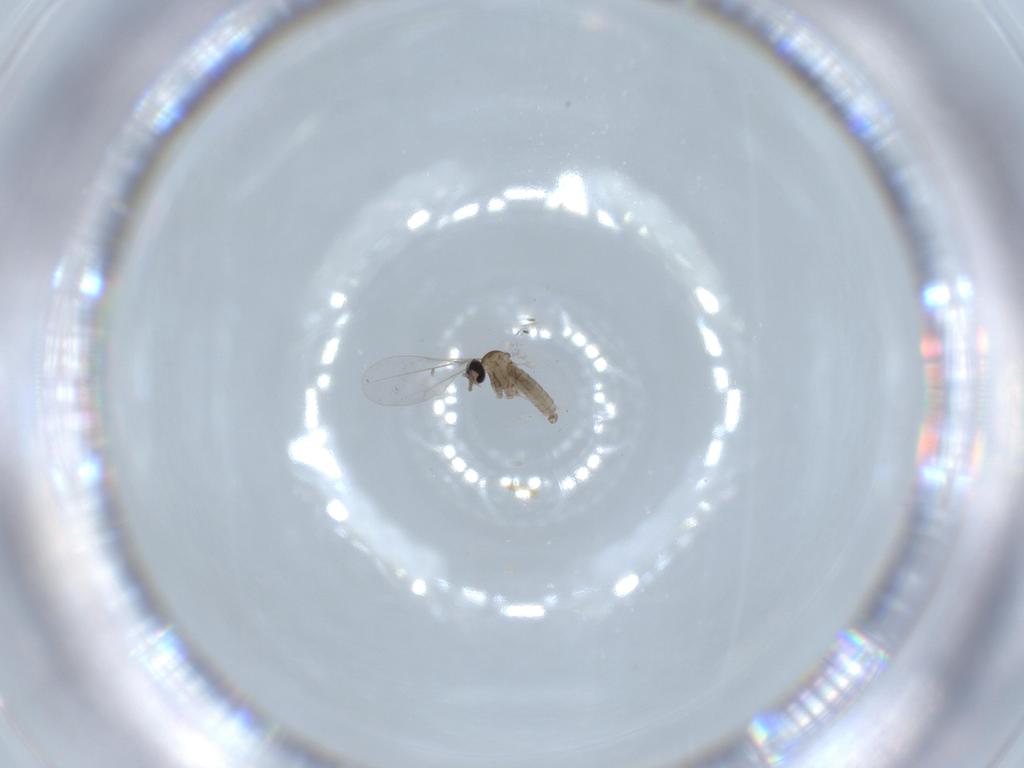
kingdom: Animalia
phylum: Arthropoda
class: Insecta
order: Diptera
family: Cecidomyiidae
